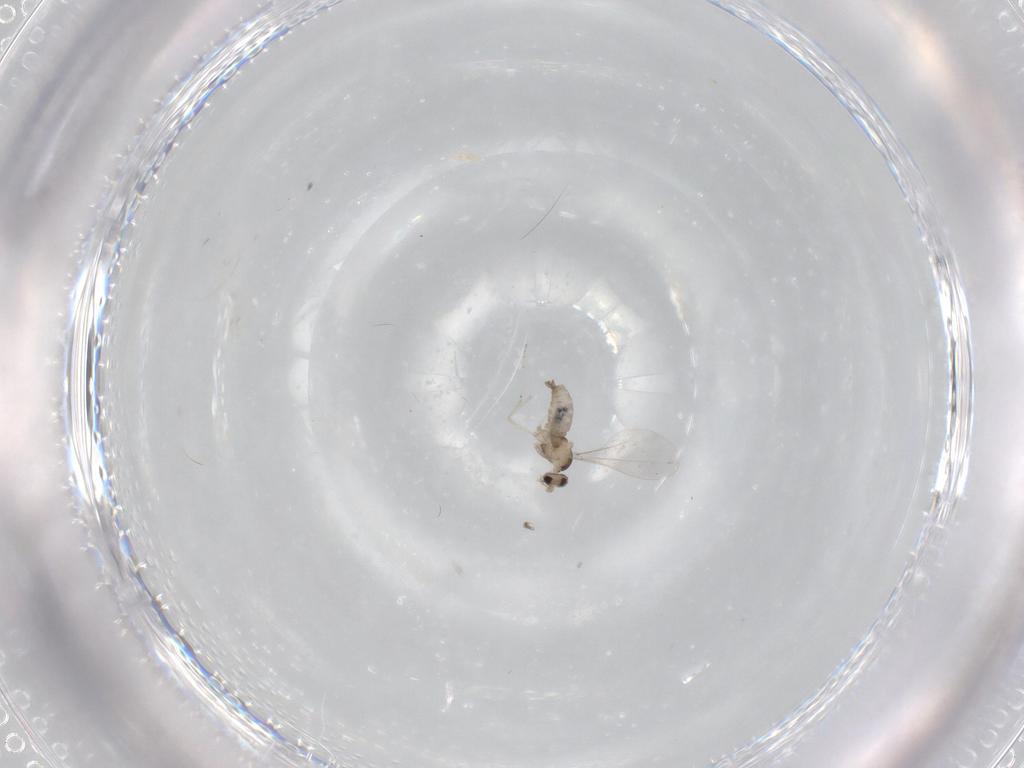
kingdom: Animalia
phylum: Arthropoda
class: Insecta
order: Diptera
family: Cecidomyiidae
